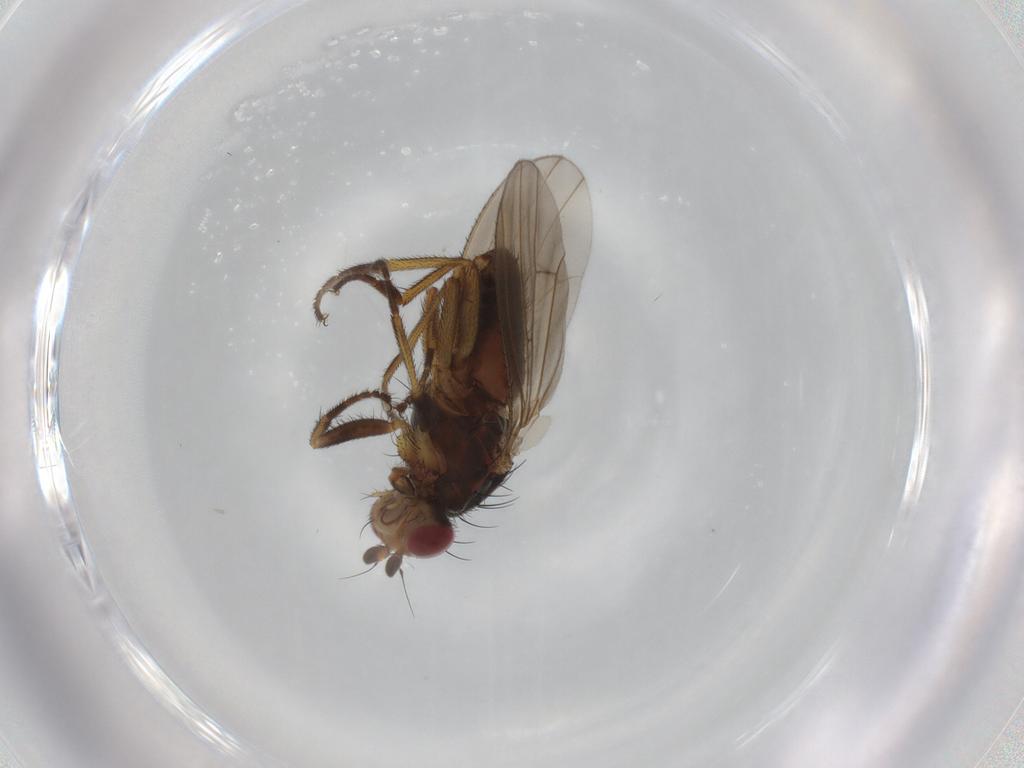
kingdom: Animalia
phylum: Arthropoda
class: Insecta
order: Diptera
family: Heleomyzidae
